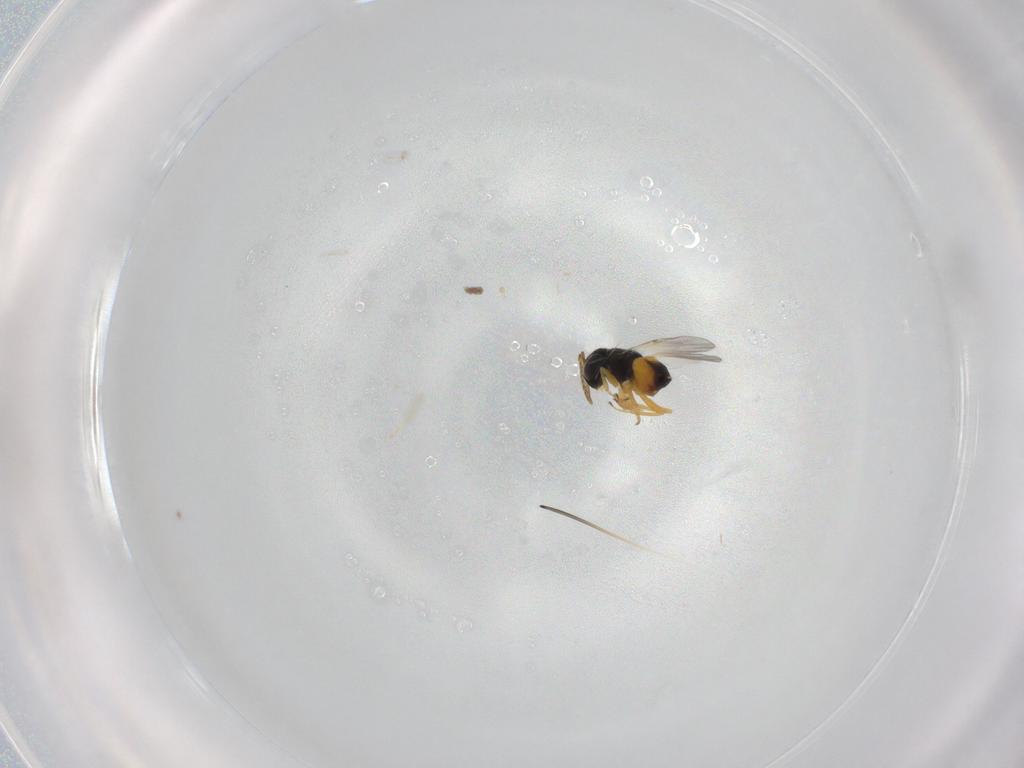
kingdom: Animalia
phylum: Arthropoda
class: Insecta
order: Hymenoptera
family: Encyrtidae
